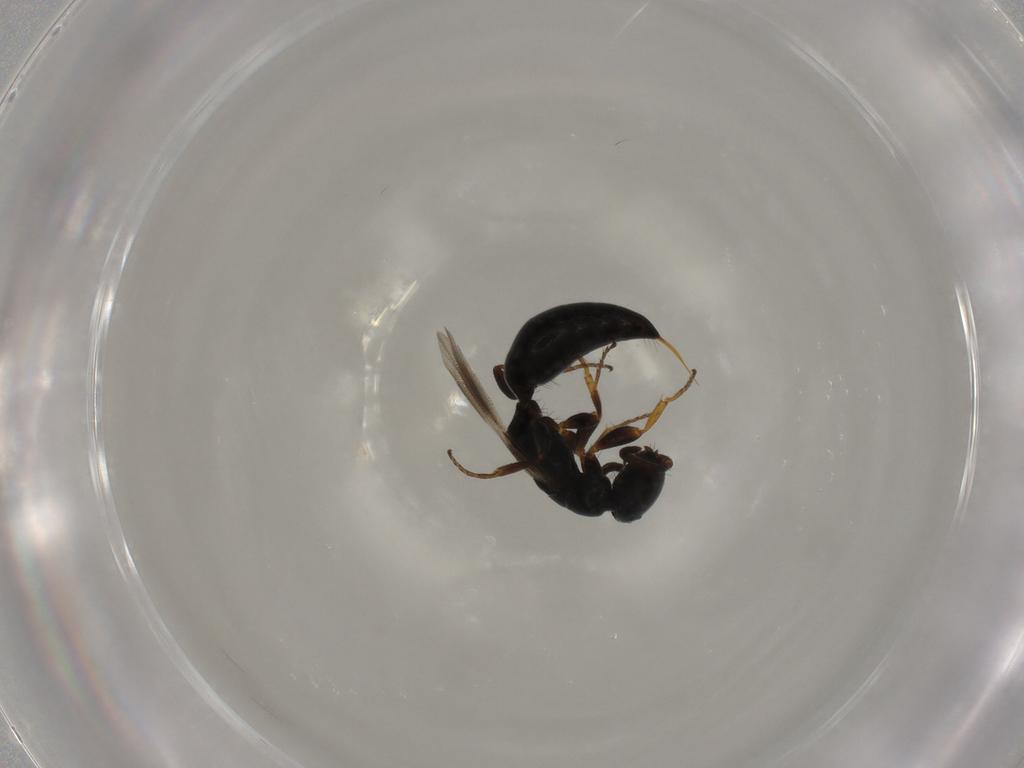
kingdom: Animalia
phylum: Arthropoda
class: Insecta
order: Hymenoptera
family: Bethylidae
